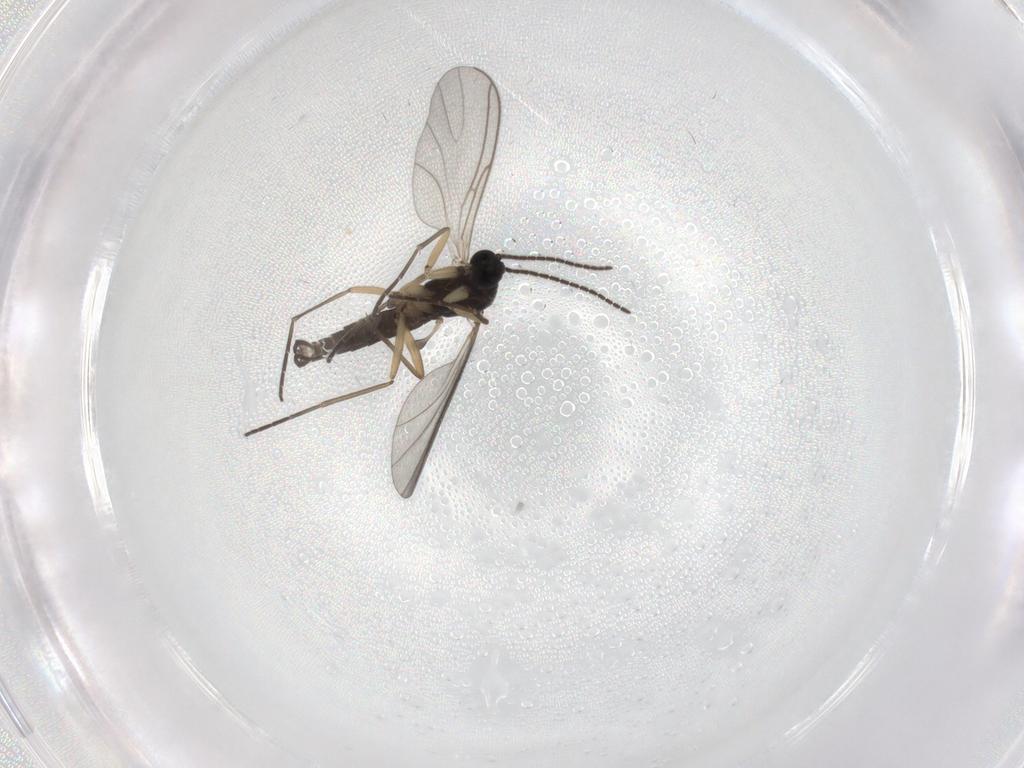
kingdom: Animalia
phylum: Arthropoda
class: Insecta
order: Diptera
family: Sciaridae
